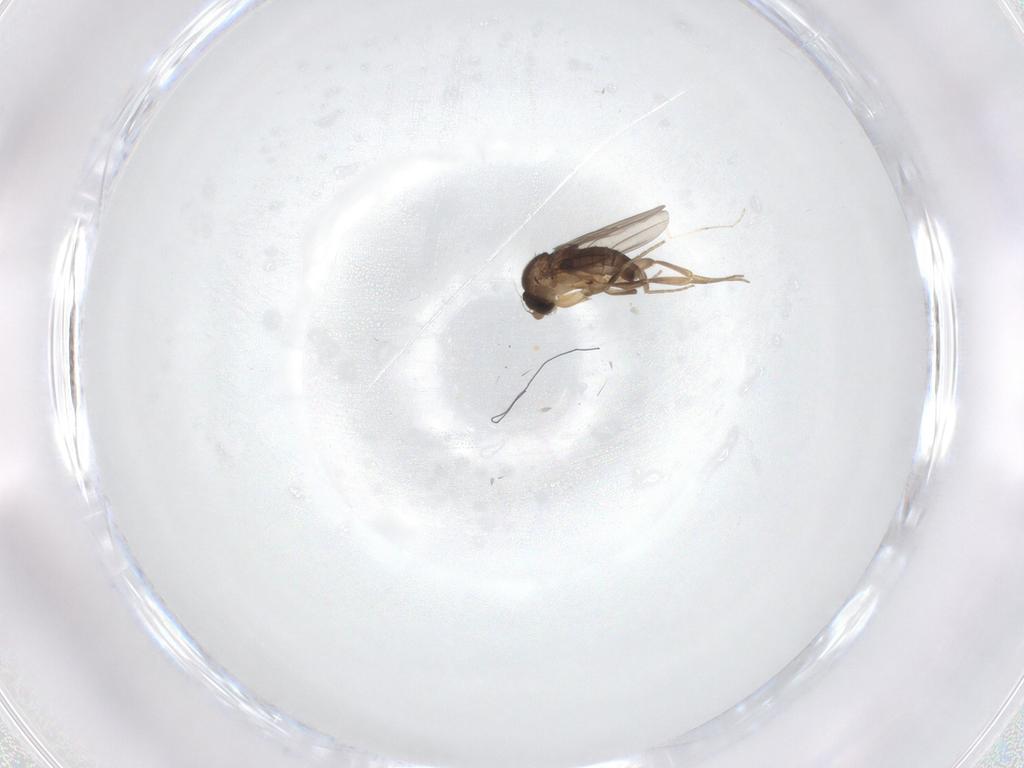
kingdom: Animalia
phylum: Arthropoda
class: Insecta
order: Diptera
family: Phoridae
